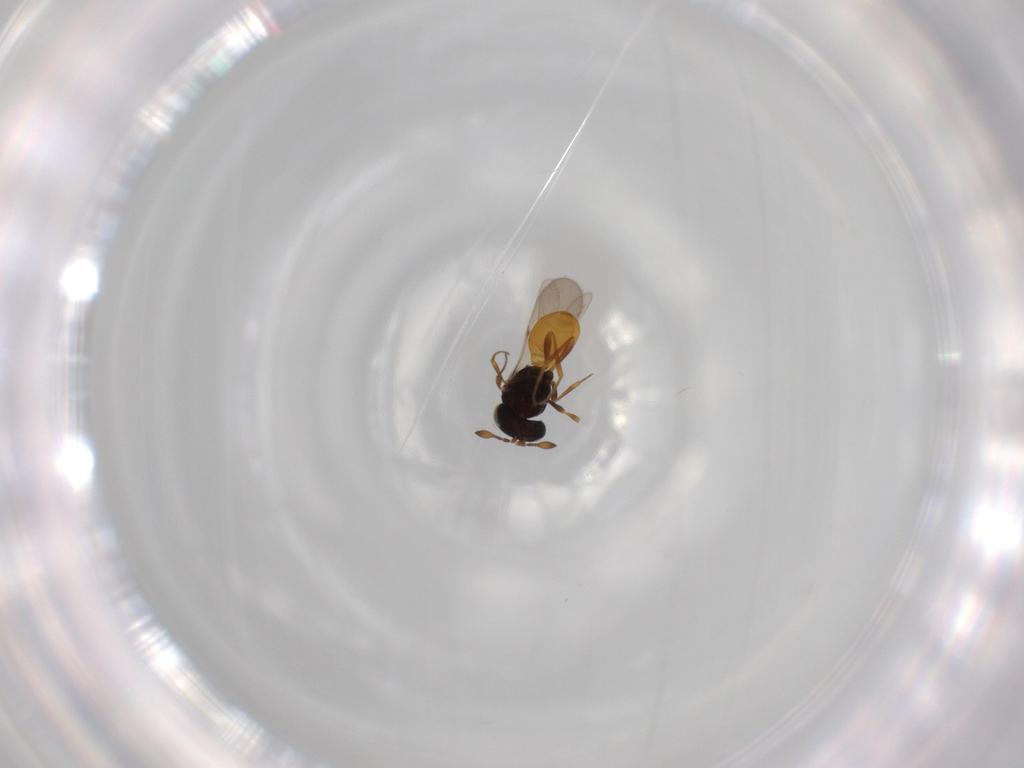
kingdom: Animalia
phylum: Arthropoda
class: Insecta
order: Hymenoptera
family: Scelionidae
